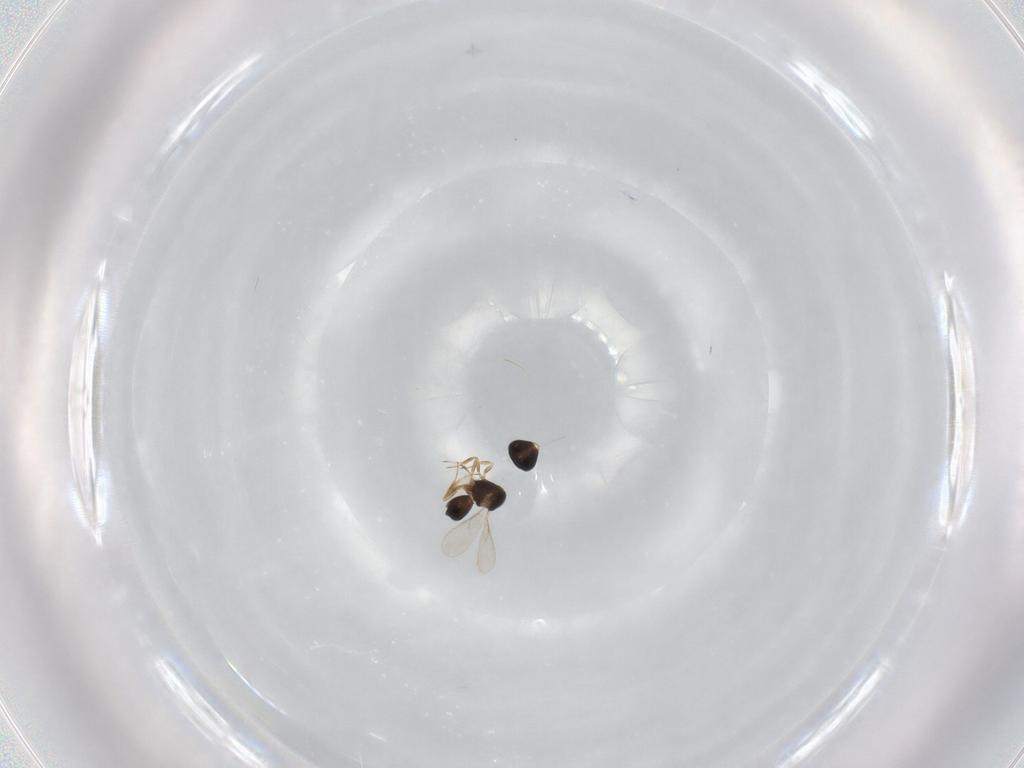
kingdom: Animalia
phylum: Arthropoda
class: Insecta
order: Hymenoptera
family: Scelionidae
